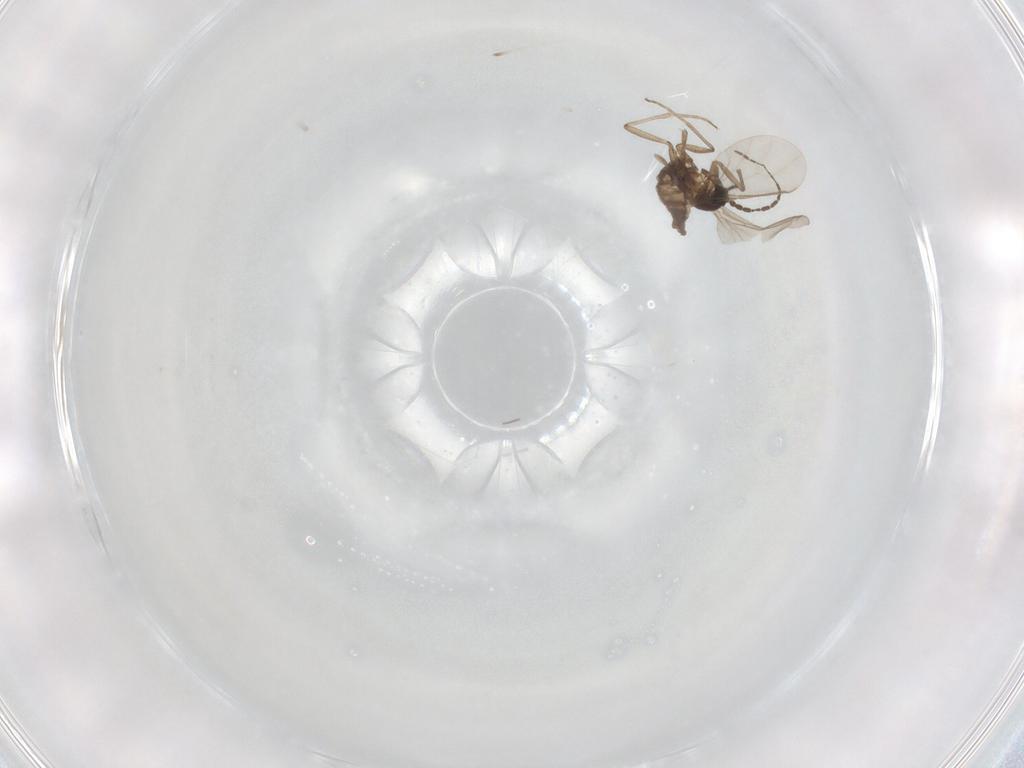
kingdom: Animalia
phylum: Arthropoda
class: Insecta
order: Diptera
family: Sciaridae
